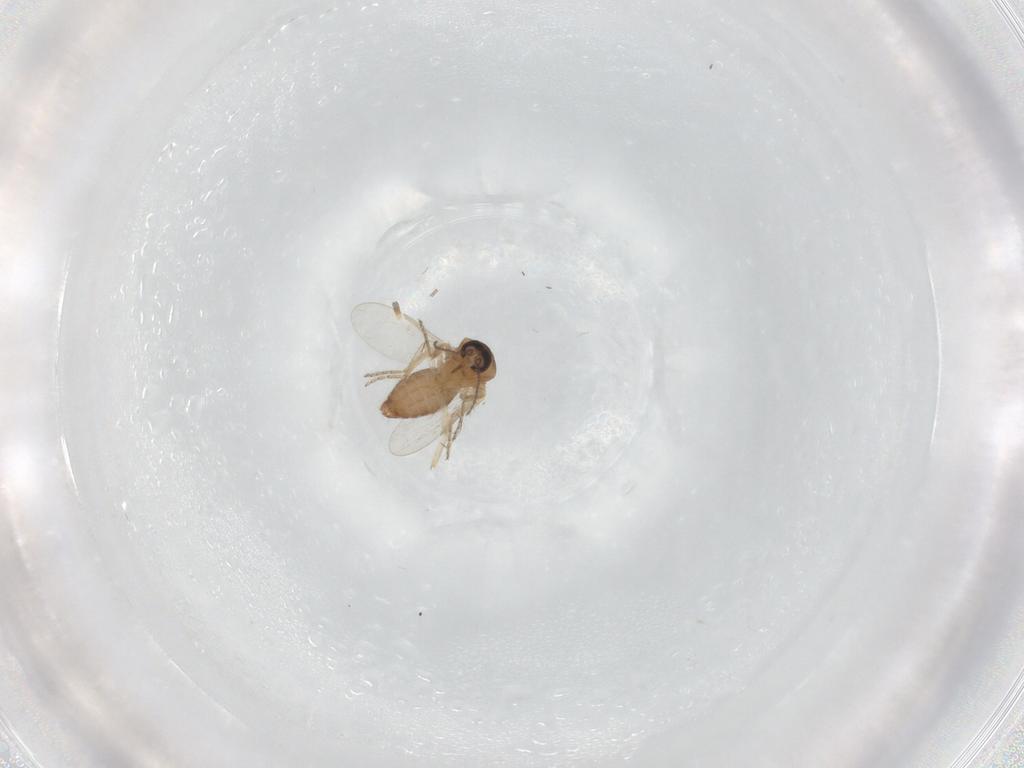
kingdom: Animalia
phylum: Arthropoda
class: Insecta
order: Diptera
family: Ceratopogonidae
